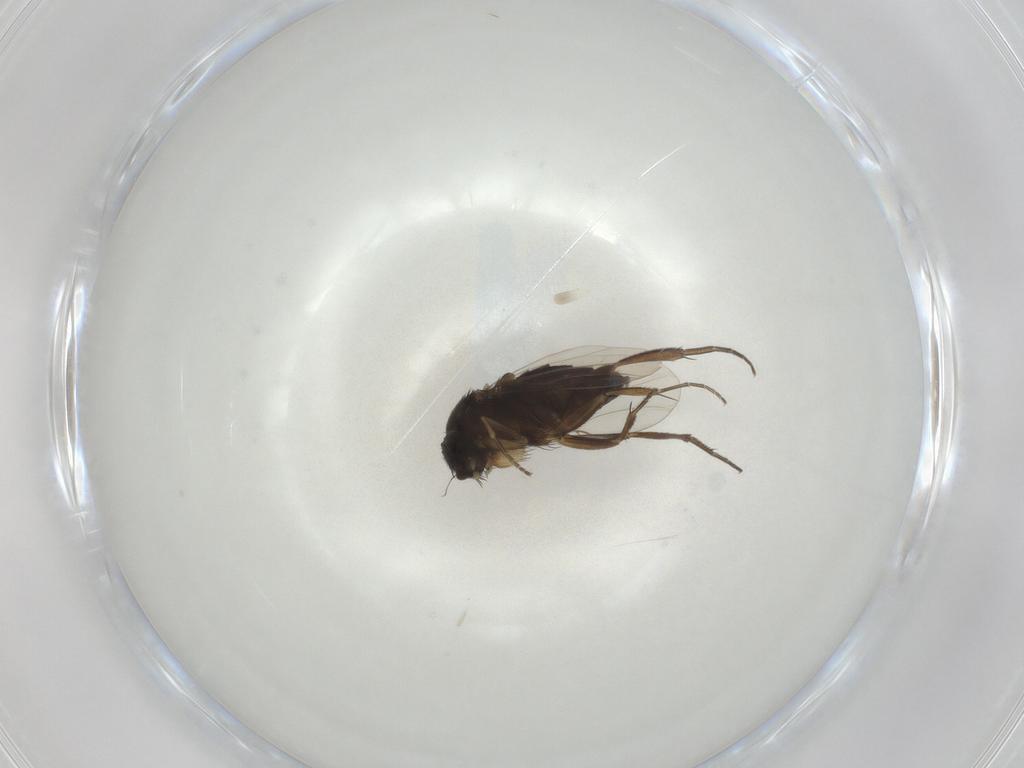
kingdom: Animalia
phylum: Arthropoda
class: Insecta
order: Diptera
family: Phoridae
